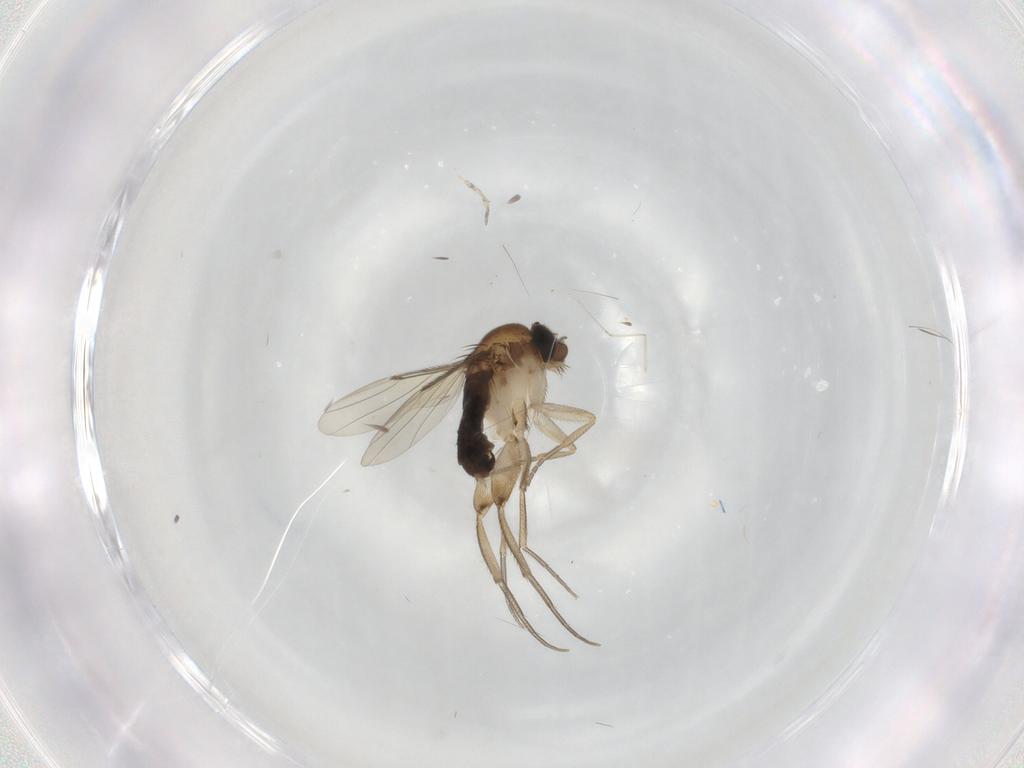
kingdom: Animalia
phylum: Arthropoda
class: Insecta
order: Diptera
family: Phoridae
